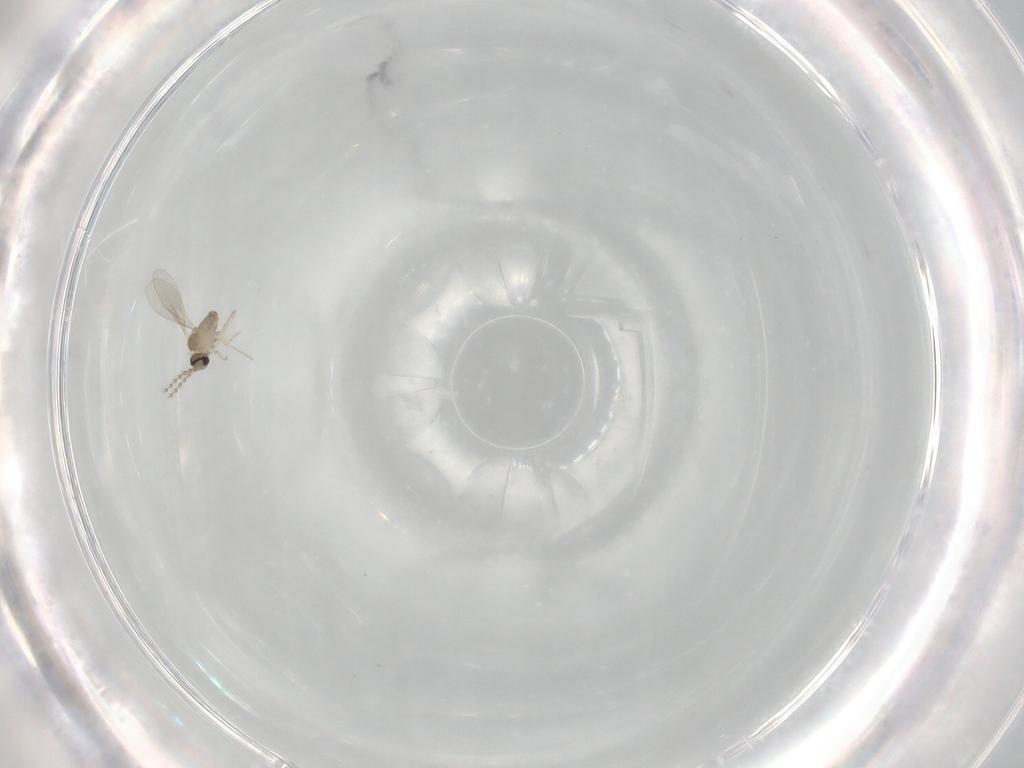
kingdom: Animalia
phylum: Arthropoda
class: Insecta
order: Diptera
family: Cecidomyiidae
